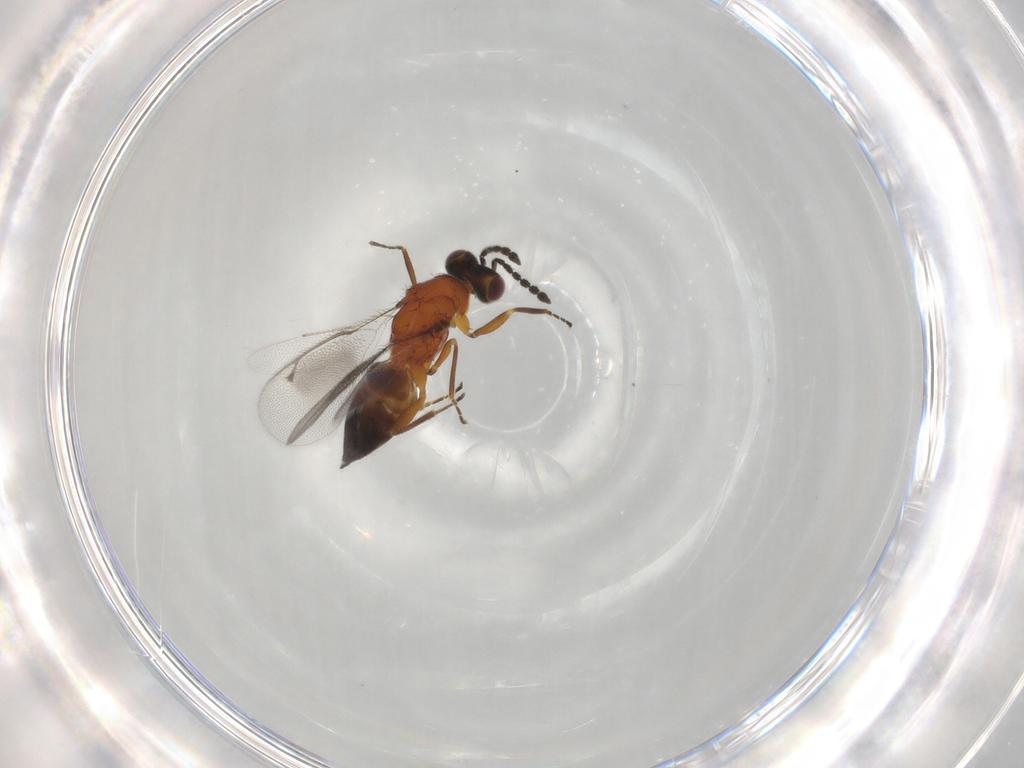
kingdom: Animalia
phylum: Arthropoda
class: Insecta
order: Hymenoptera
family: Eulophidae
